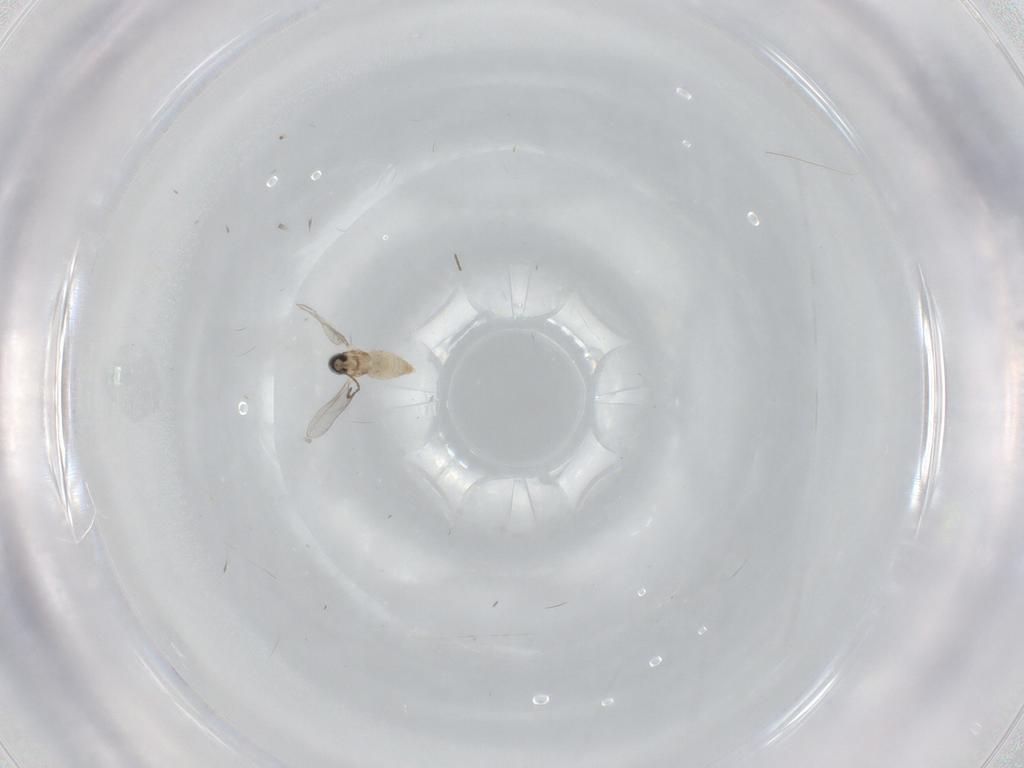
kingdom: Animalia
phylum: Arthropoda
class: Insecta
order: Diptera
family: Cecidomyiidae
